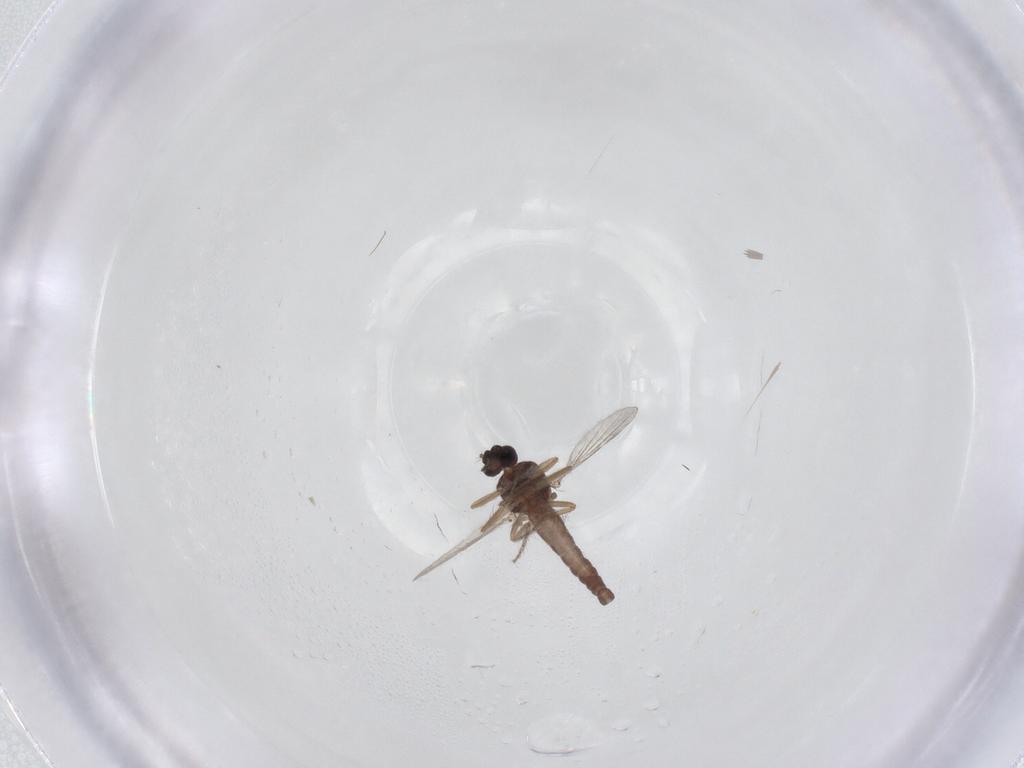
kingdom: Animalia
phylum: Arthropoda
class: Insecta
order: Diptera
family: Ceratopogonidae
